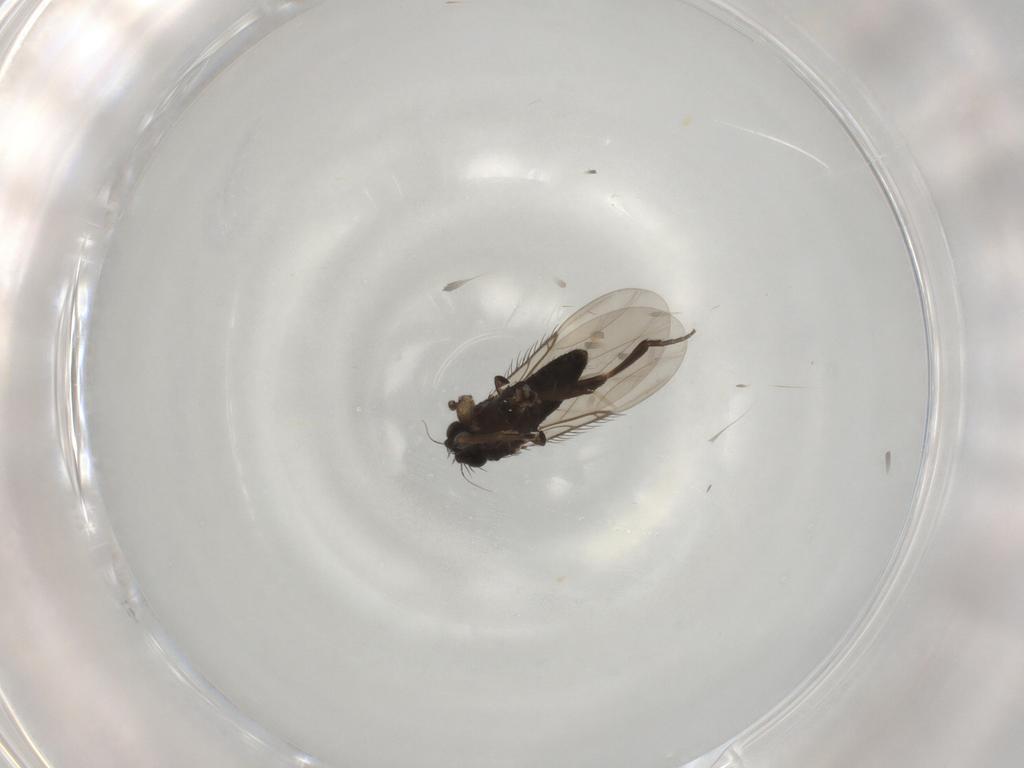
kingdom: Animalia
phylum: Arthropoda
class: Insecta
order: Diptera
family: Phoridae
